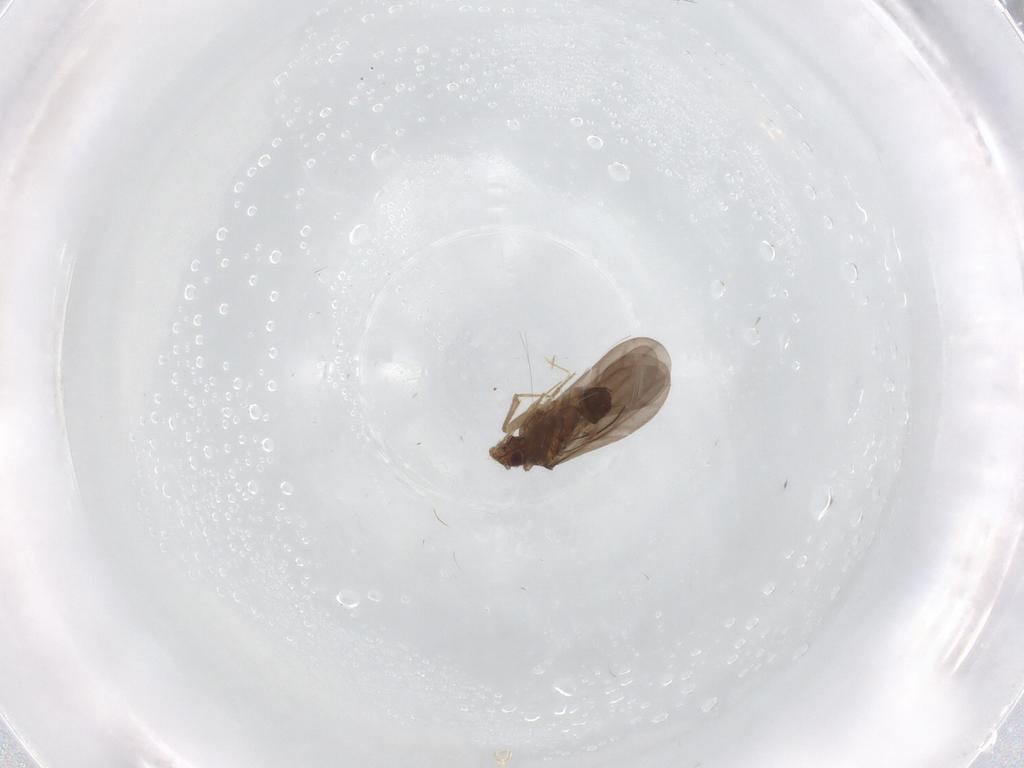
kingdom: Animalia
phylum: Arthropoda
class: Insecta
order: Hemiptera
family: Ceratocombidae
